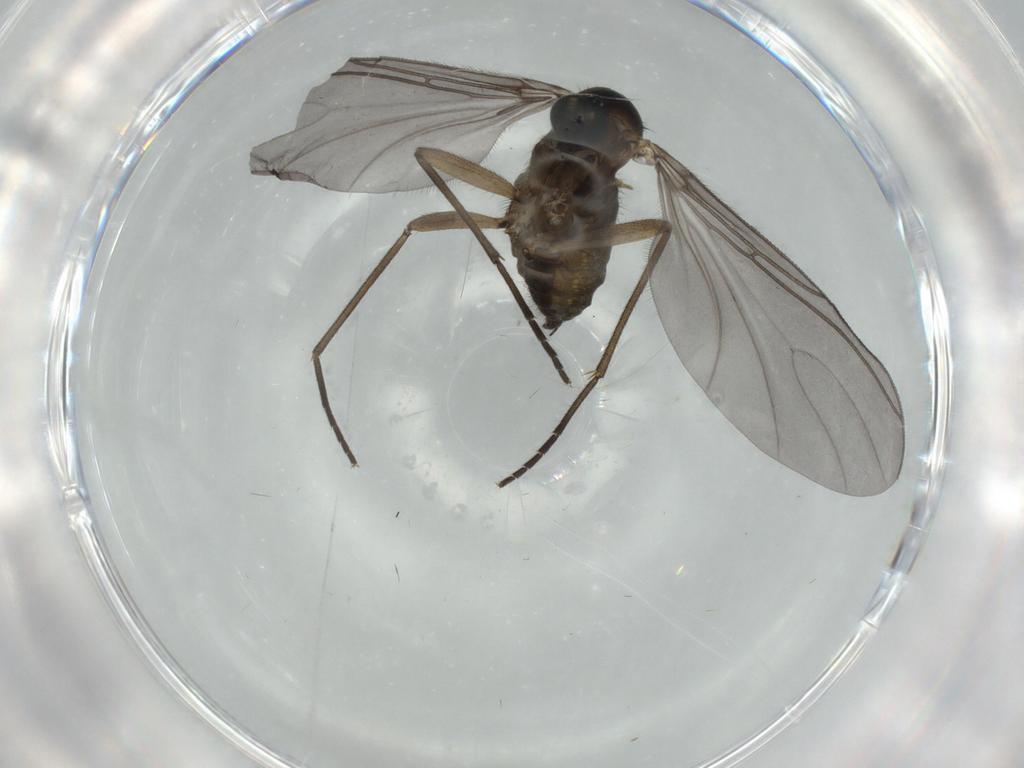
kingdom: Animalia
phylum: Arthropoda
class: Insecta
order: Diptera
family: Sciaridae
